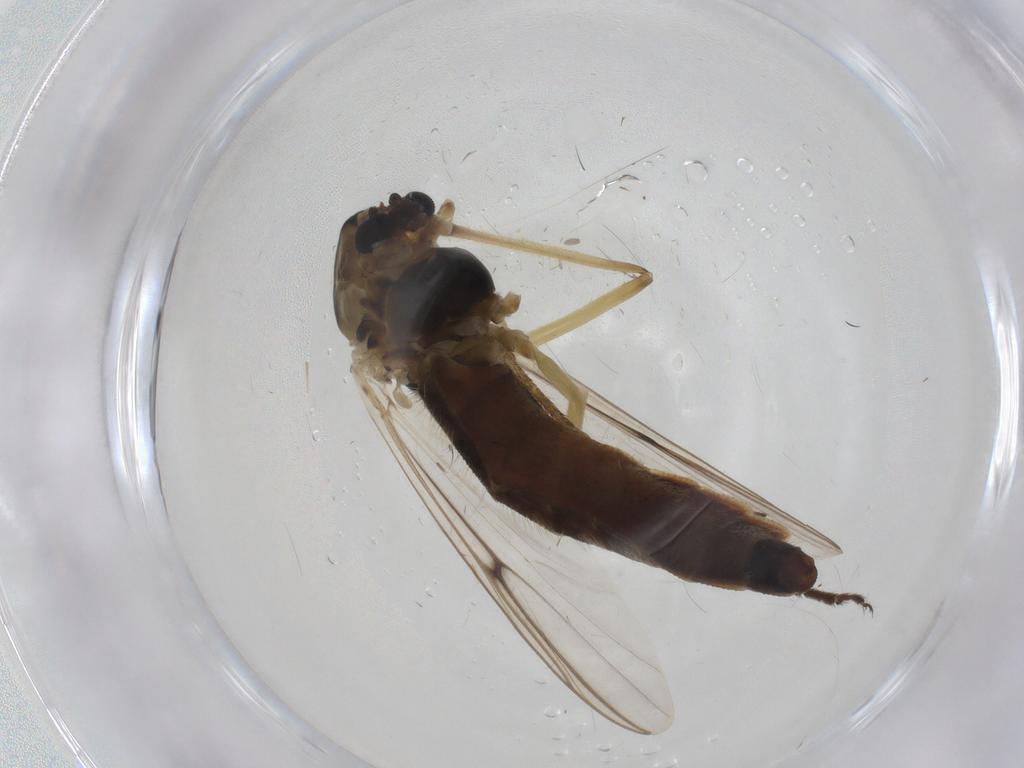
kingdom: Animalia
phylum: Arthropoda
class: Insecta
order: Diptera
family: Chironomidae
